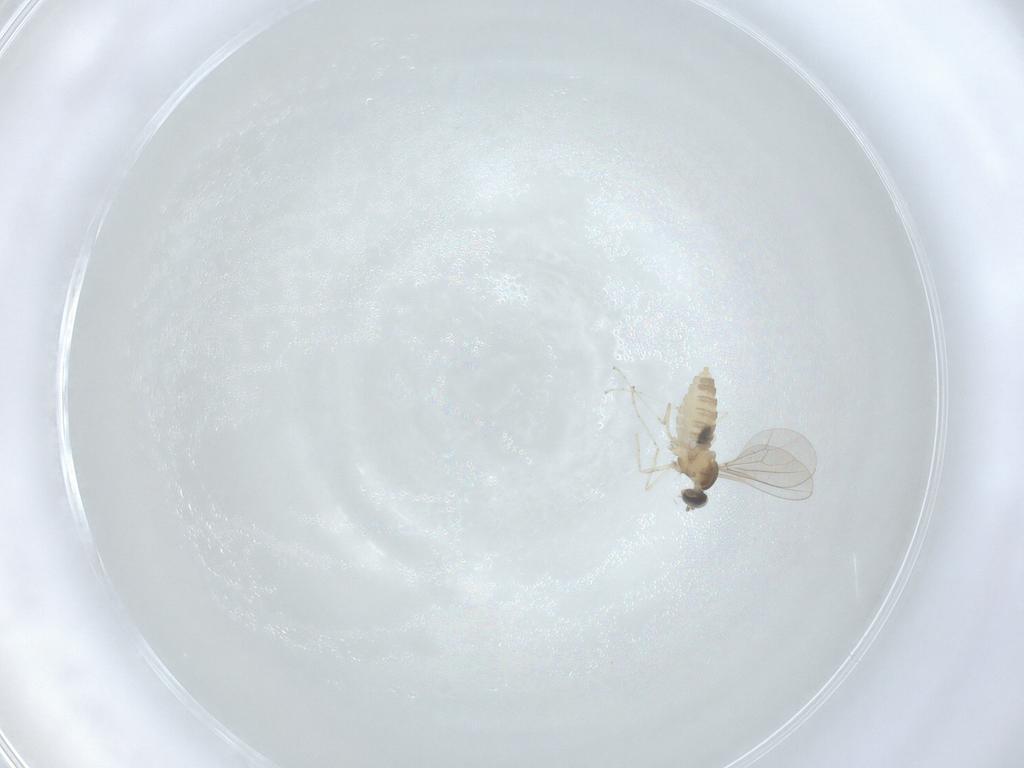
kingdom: Animalia
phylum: Arthropoda
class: Insecta
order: Diptera
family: Cecidomyiidae
